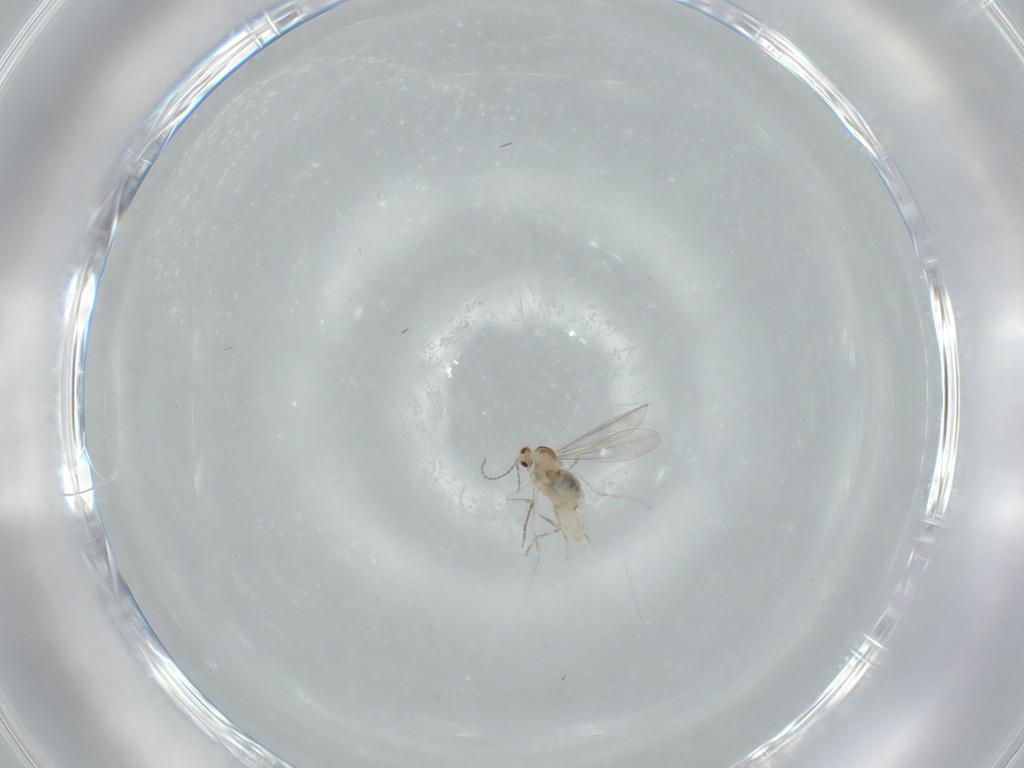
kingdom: Animalia
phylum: Arthropoda
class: Insecta
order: Diptera
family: Cecidomyiidae
